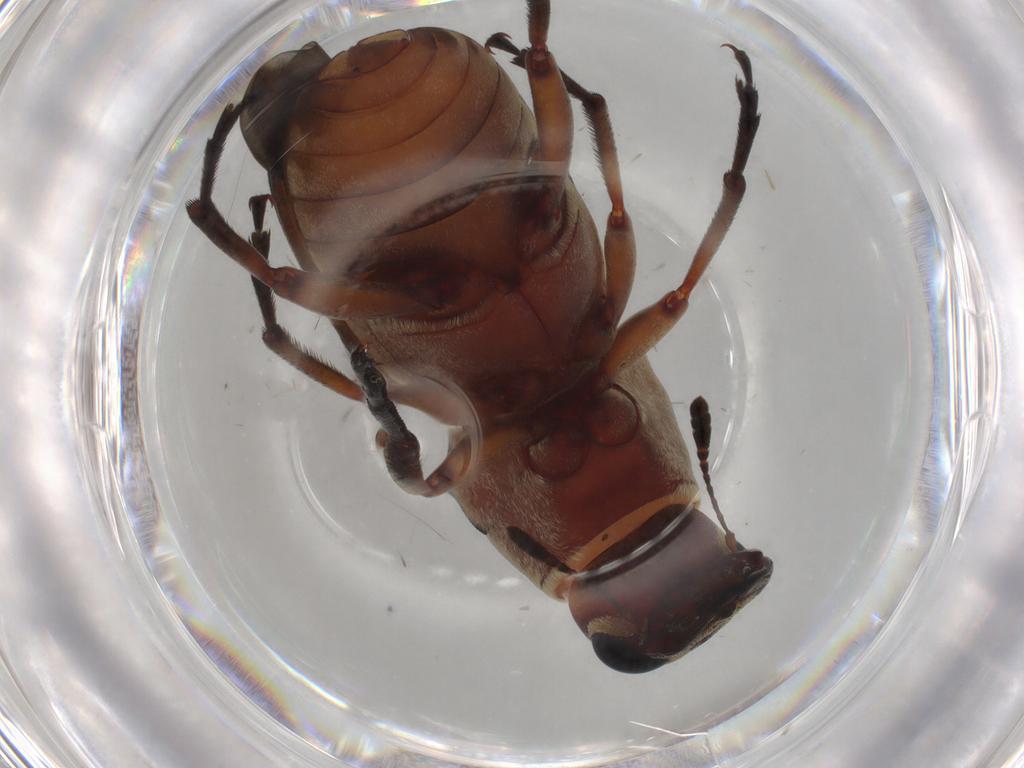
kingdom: Animalia
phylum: Arthropoda
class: Insecta
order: Coleoptera
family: Anthribidae
